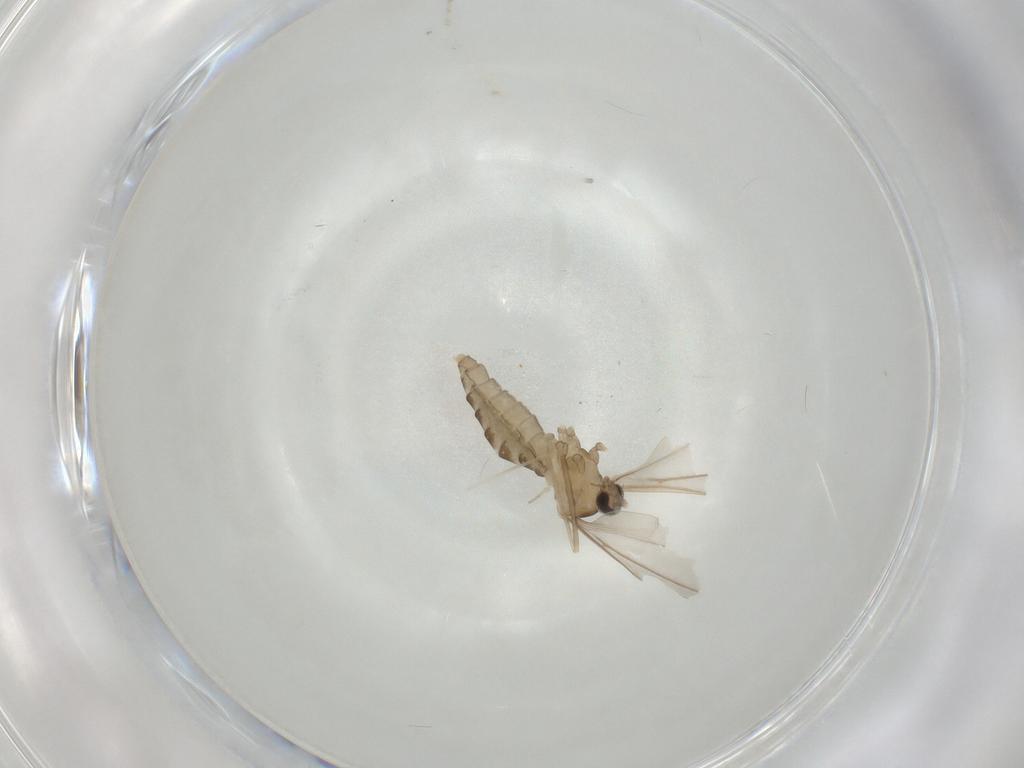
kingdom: Animalia
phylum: Arthropoda
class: Insecta
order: Diptera
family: Cecidomyiidae
